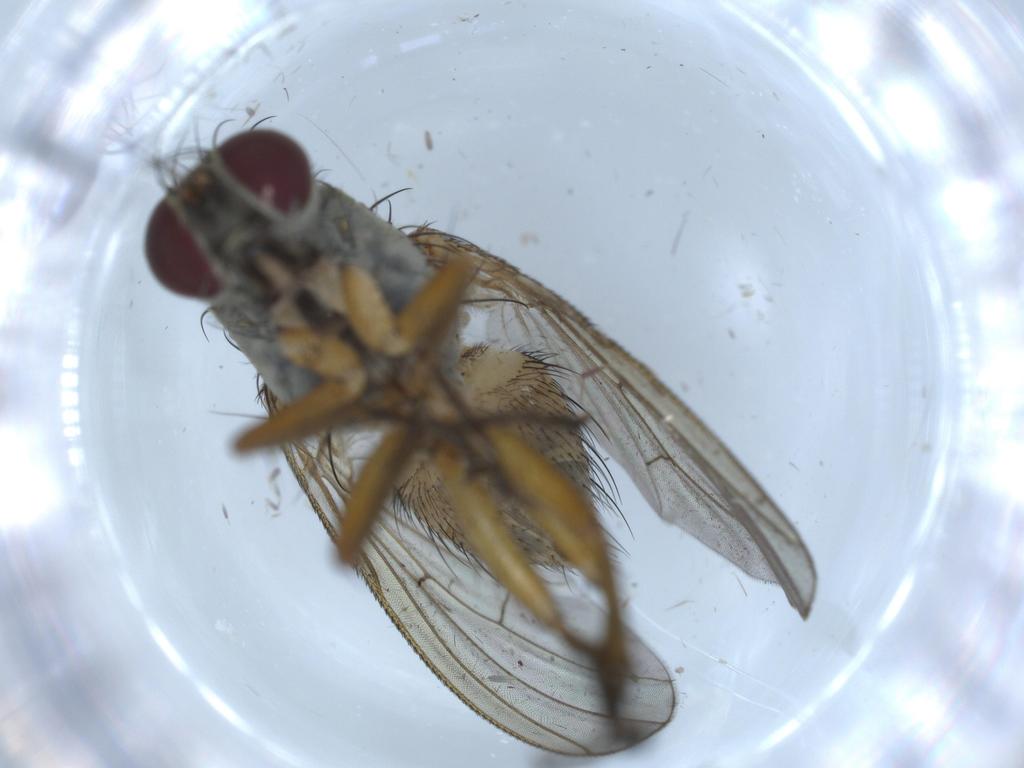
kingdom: Animalia
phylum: Arthropoda
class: Insecta
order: Diptera
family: Muscidae
